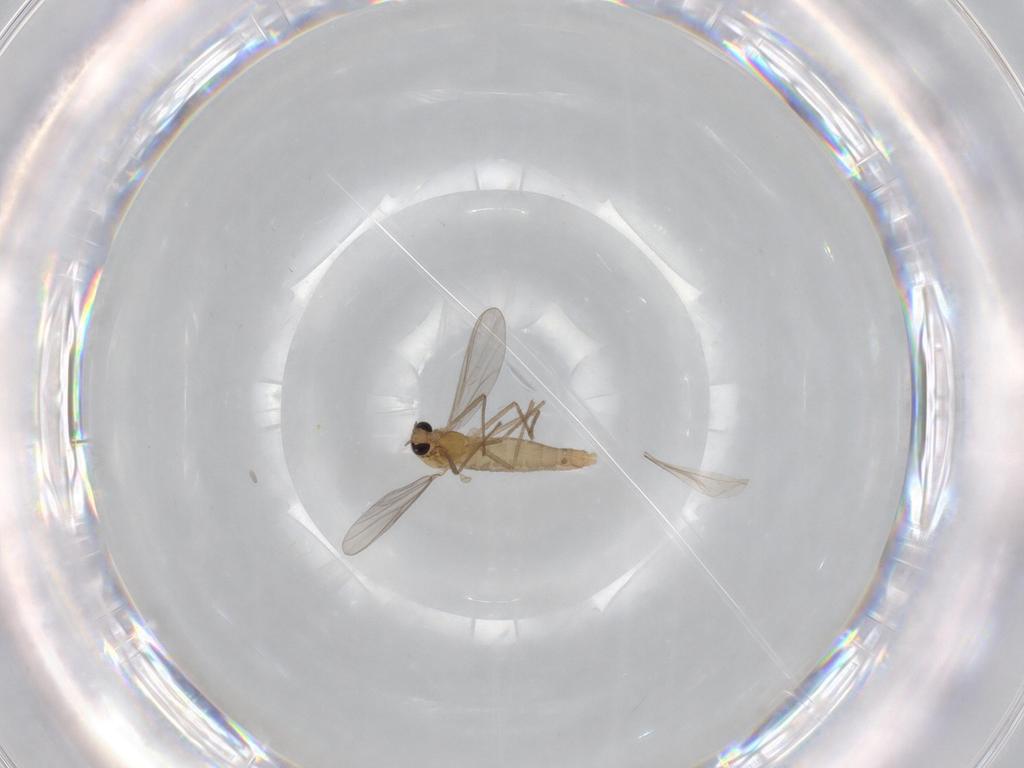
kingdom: Animalia
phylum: Arthropoda
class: Insecta
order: Diptera
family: Chironomidae
